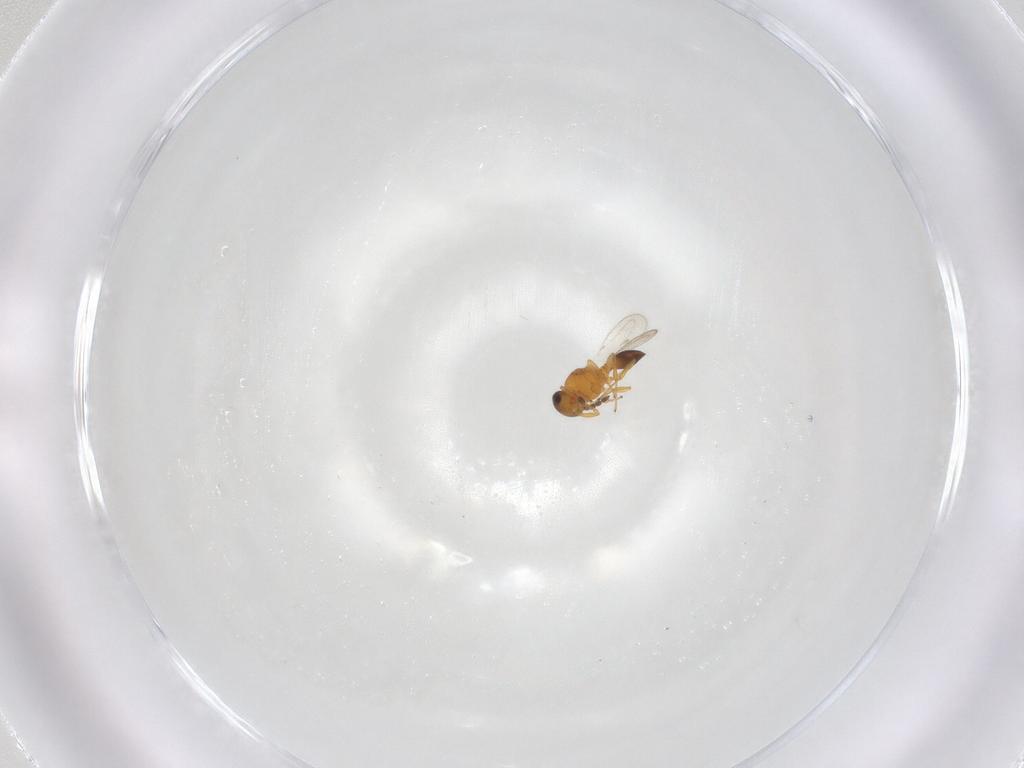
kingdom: Animalia
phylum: Arthropoda
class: Insecta
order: Hymenoptera
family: Platygastridae
